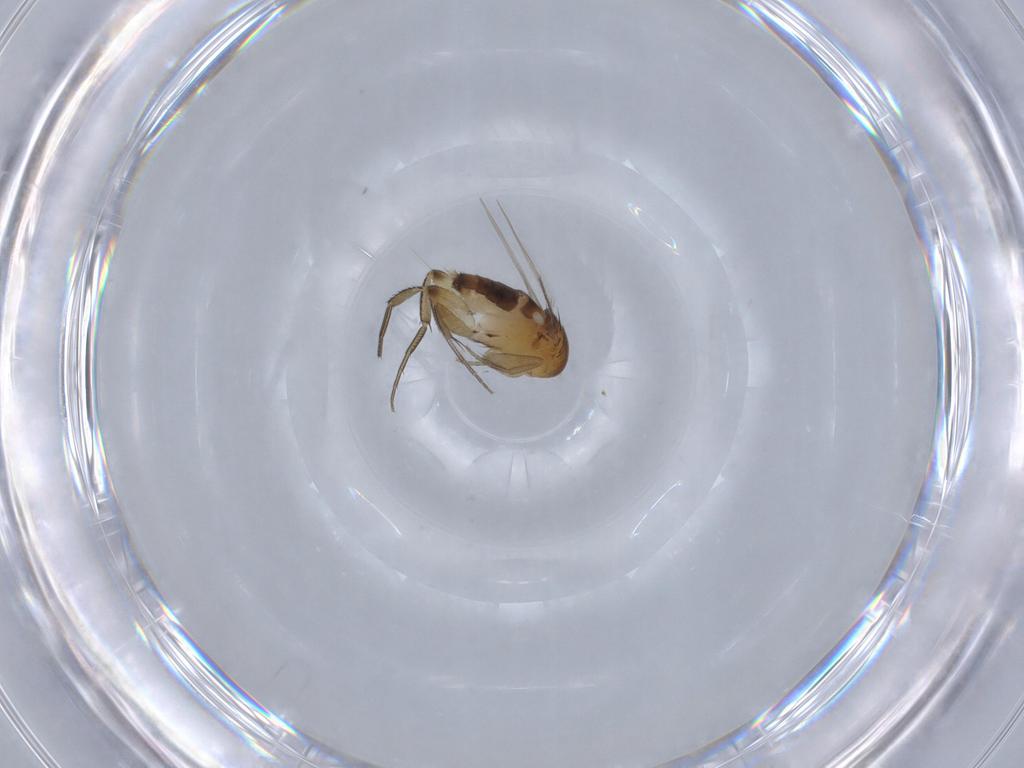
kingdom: Animalia
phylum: Arthropoda
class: Insecta
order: Diptera
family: Phoridae
